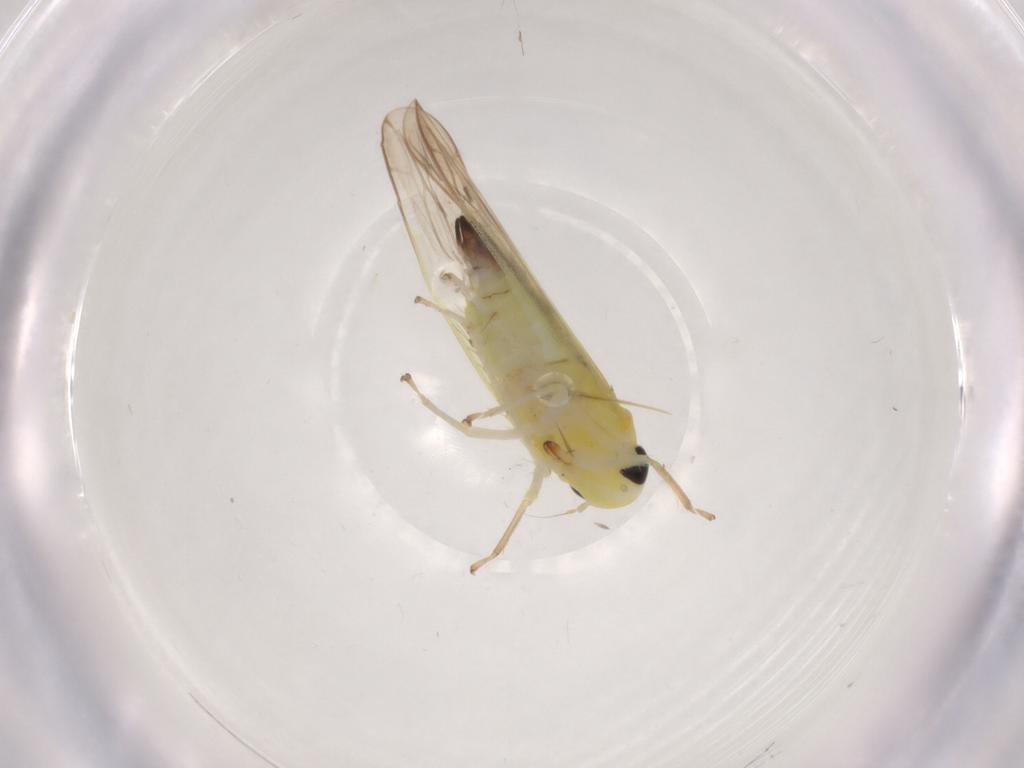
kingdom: Animalia
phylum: Arthropoda
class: Insecta
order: Hemiptera
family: Cicadellidae
